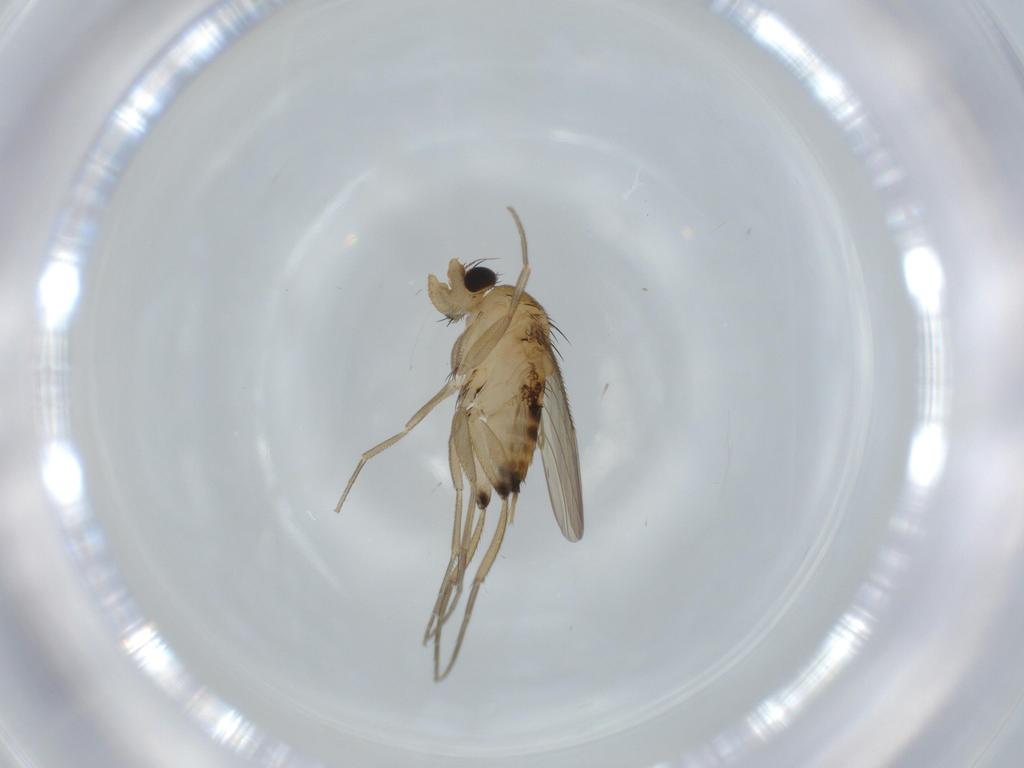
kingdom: Animalia
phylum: Arthropoda
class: Insecta
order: Diptera
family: Phoridae
